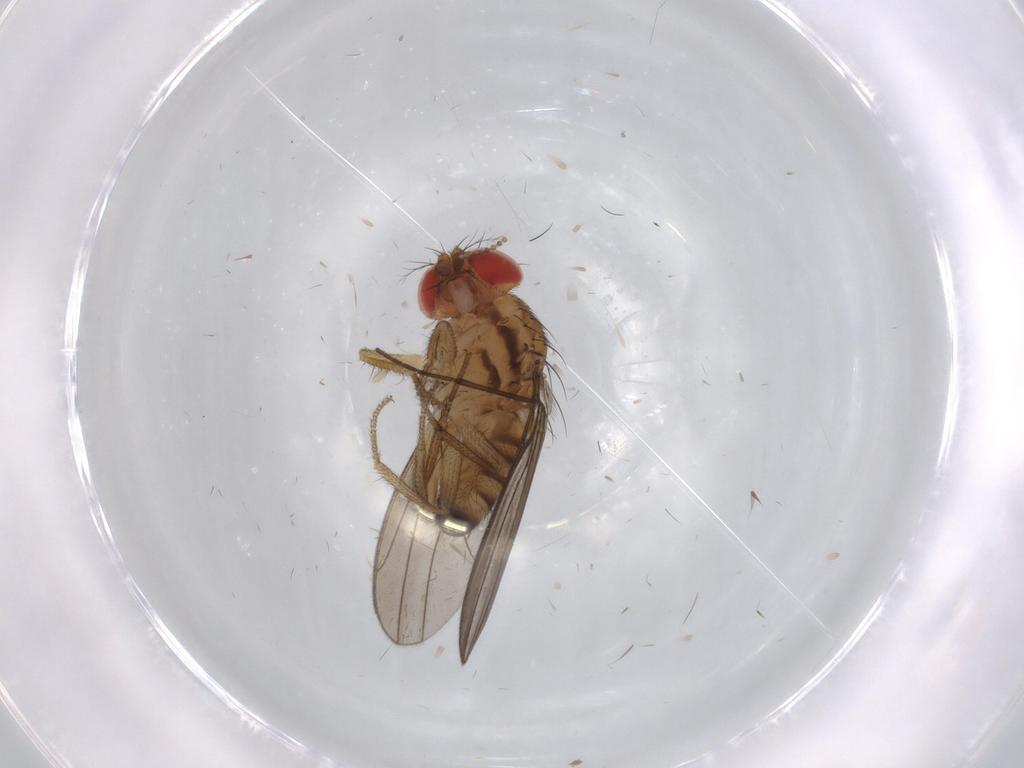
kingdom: Animalia
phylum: Arthropoda
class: Insecta
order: Diptera
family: Drosophilidae
